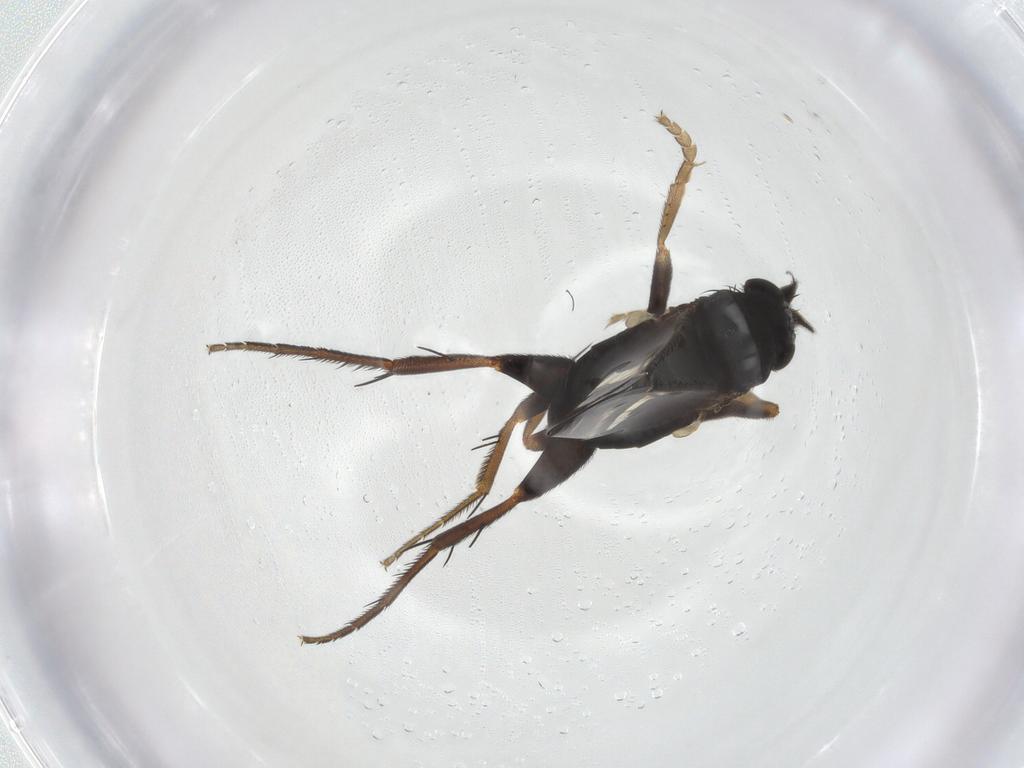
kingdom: Animalia
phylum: Arthropoda
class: Insecta
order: Diptera
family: Phoridae
